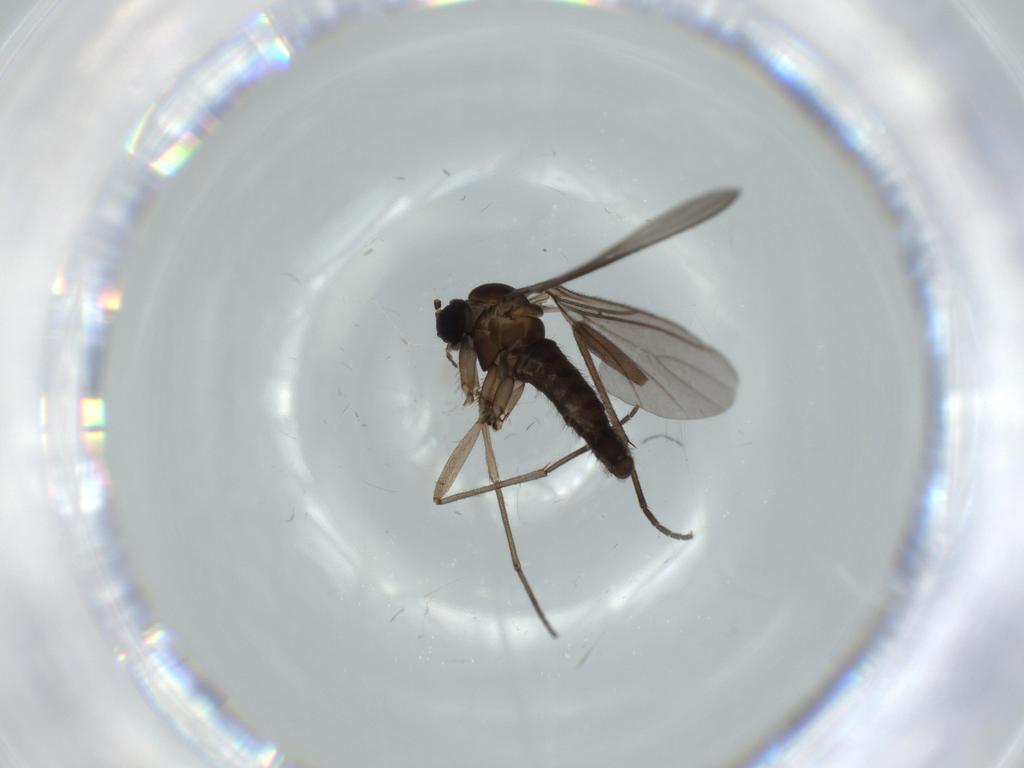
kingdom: Animalia
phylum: Arthropoda
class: Insecta
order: Diptera
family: Sciaridae
